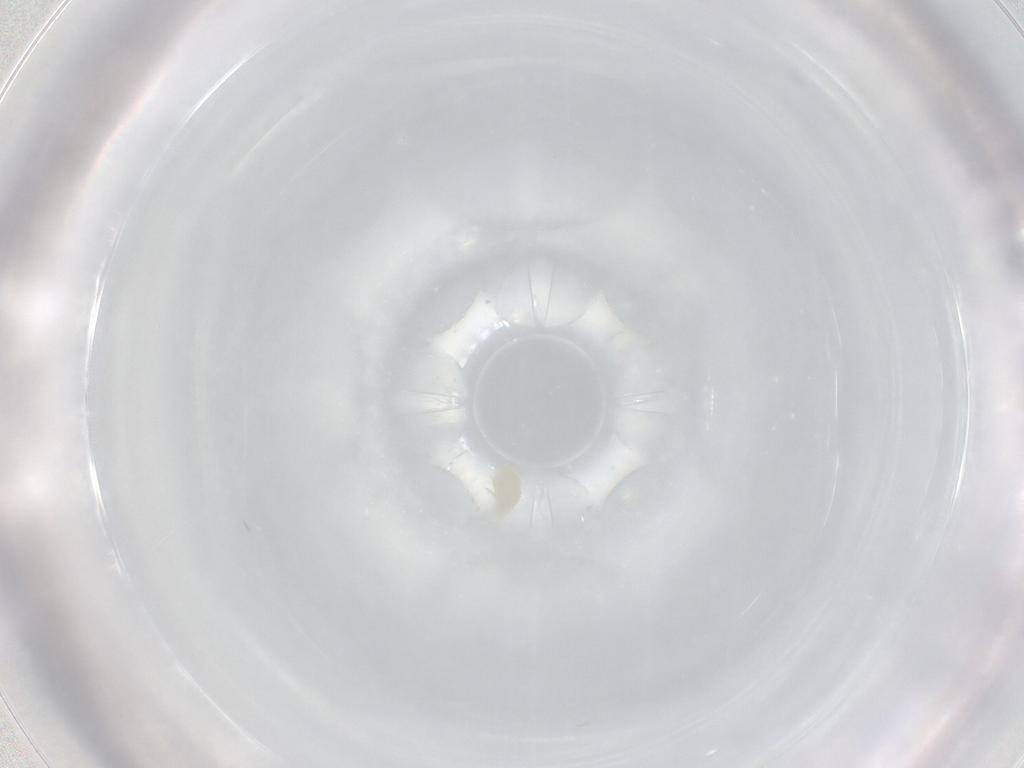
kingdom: Animalia
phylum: Arthropoda
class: Arachnida
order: Sarcoptiformes
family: Alycidae
